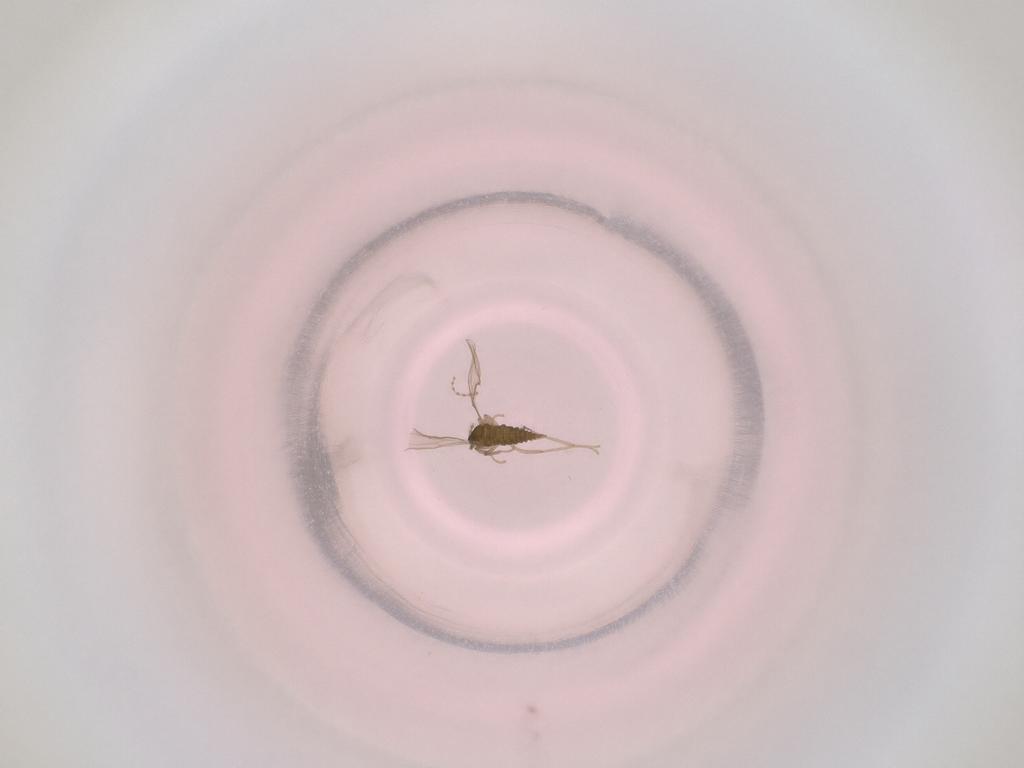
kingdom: Animalia
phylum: Arthropoda
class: Insecta
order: Diptera
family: Cecidomyiidae
